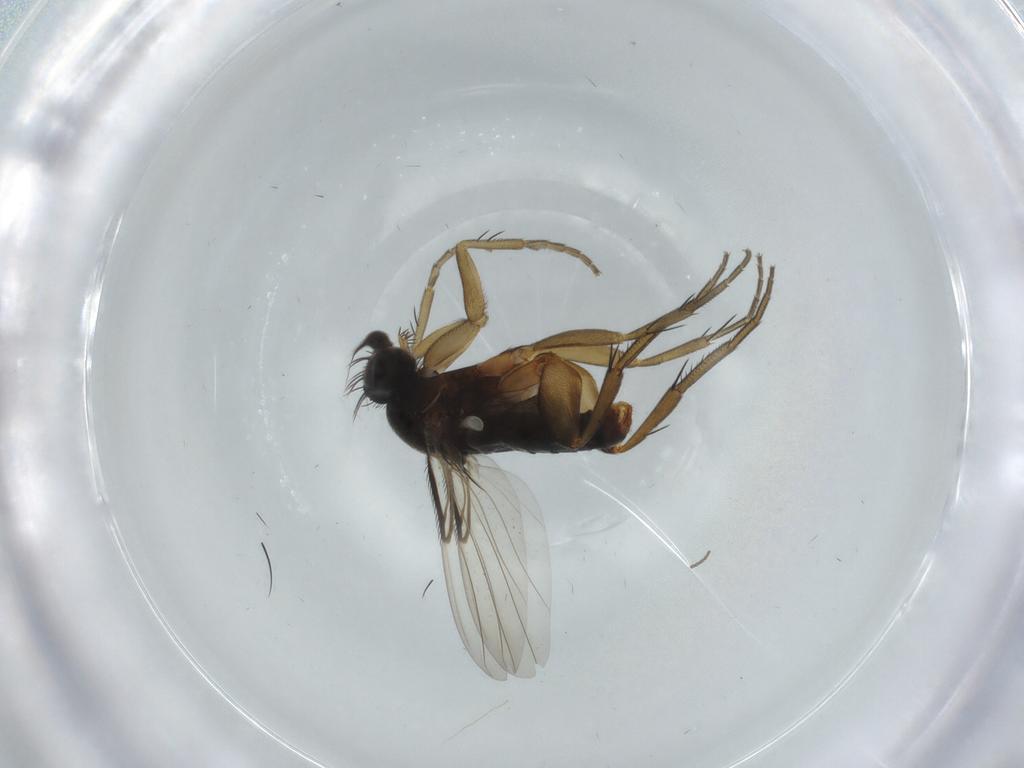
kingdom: Animalia
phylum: Arthropoda
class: Insecta
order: Diptera
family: Phoridae
